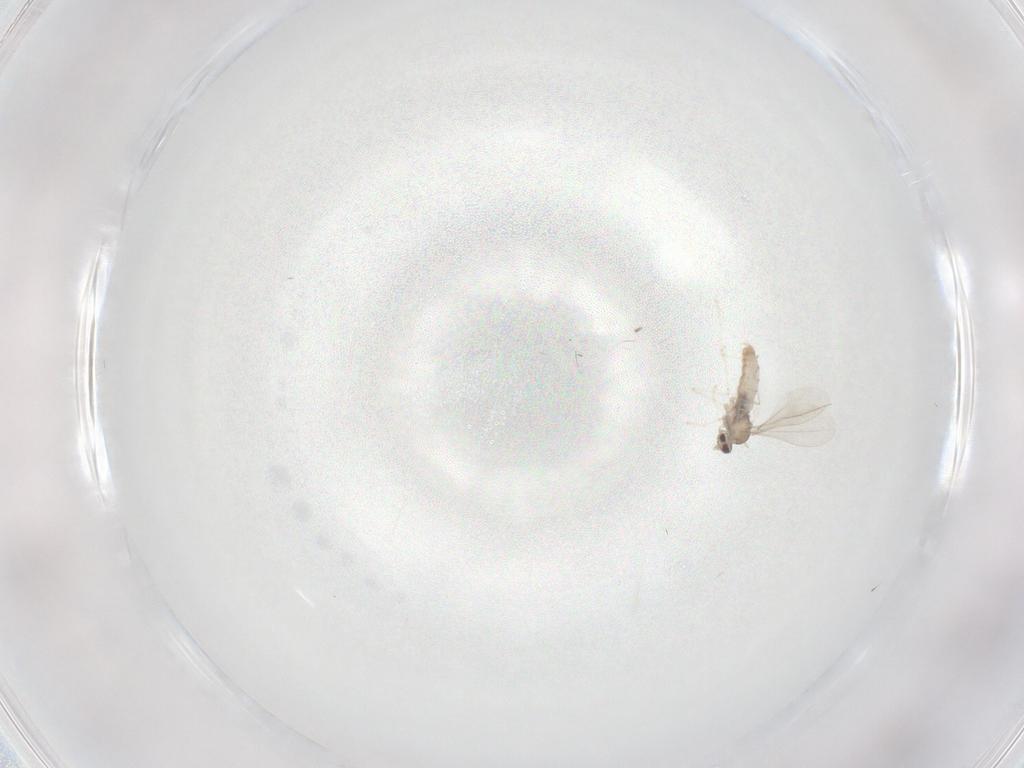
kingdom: Animalia
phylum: Arthropoda
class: Insecta
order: Diptera
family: Cecidomyiidae
